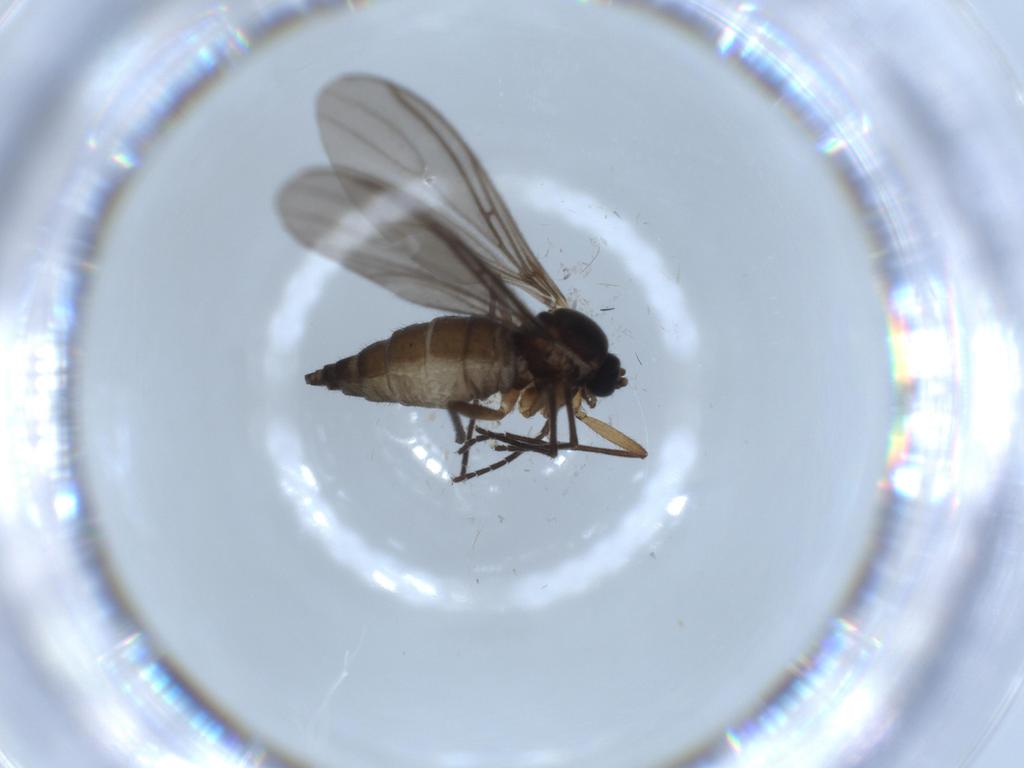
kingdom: Animalia
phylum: Arthropoda
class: Insecta
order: Diptera
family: Sciaridae
